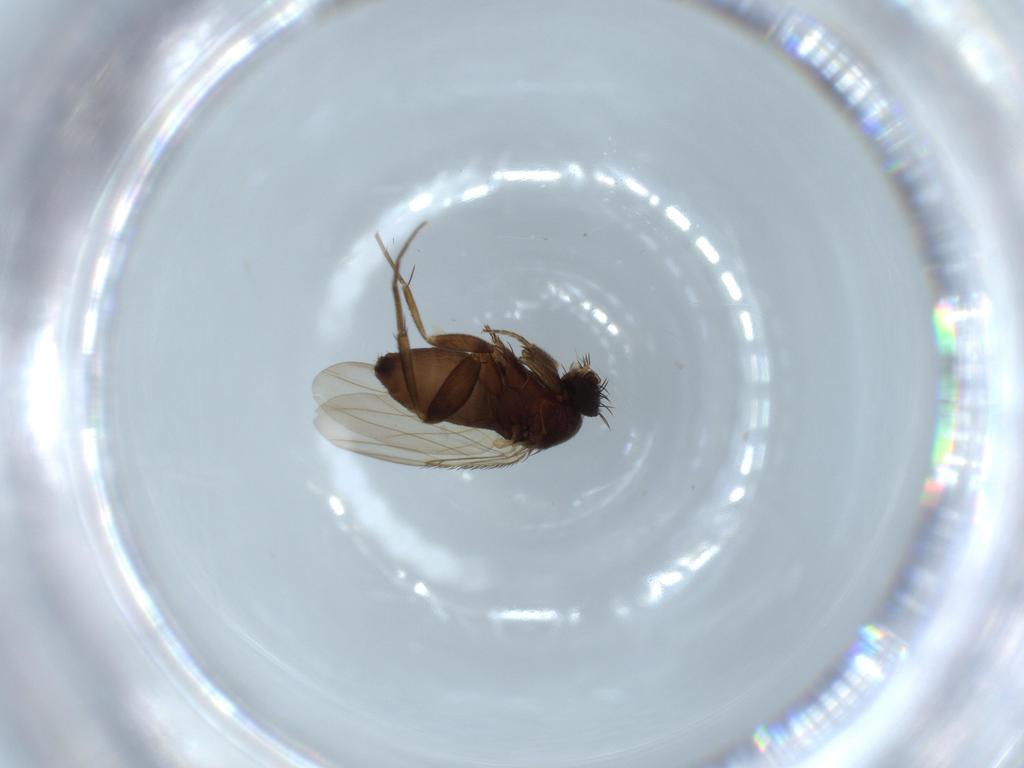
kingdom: Animalia
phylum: Arthropoda
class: Insecta
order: Diptera
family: Phoridae
